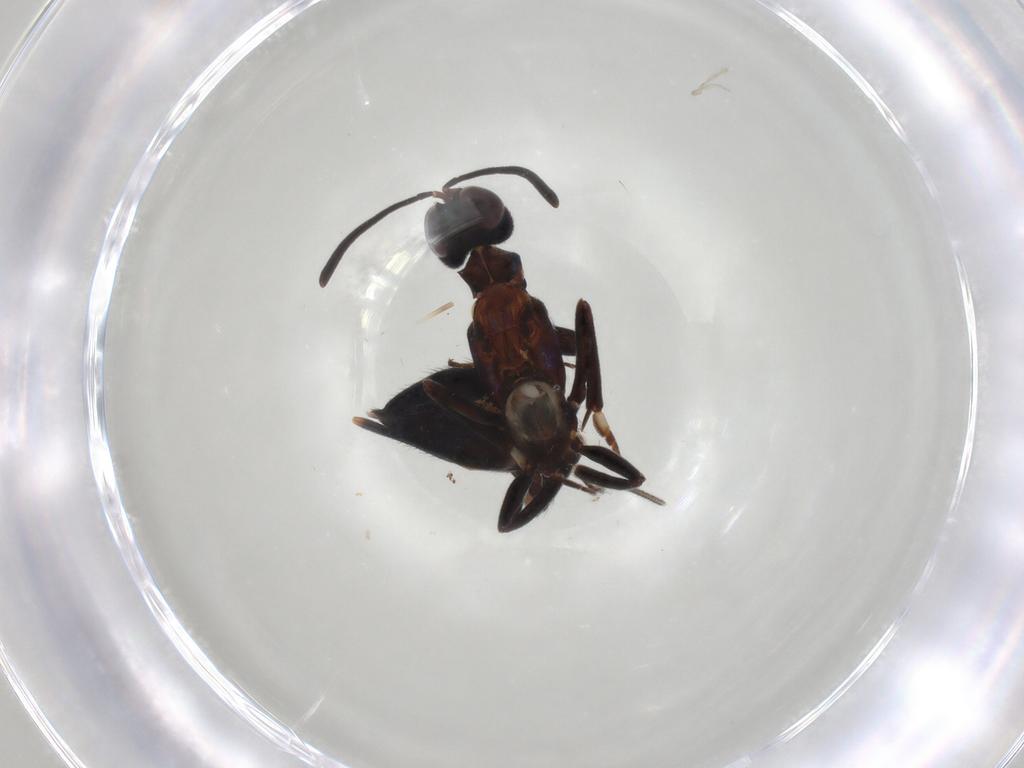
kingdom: Animalia
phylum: Arthropoda
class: Insecta
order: Hymenoptera
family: Eupelmidae
